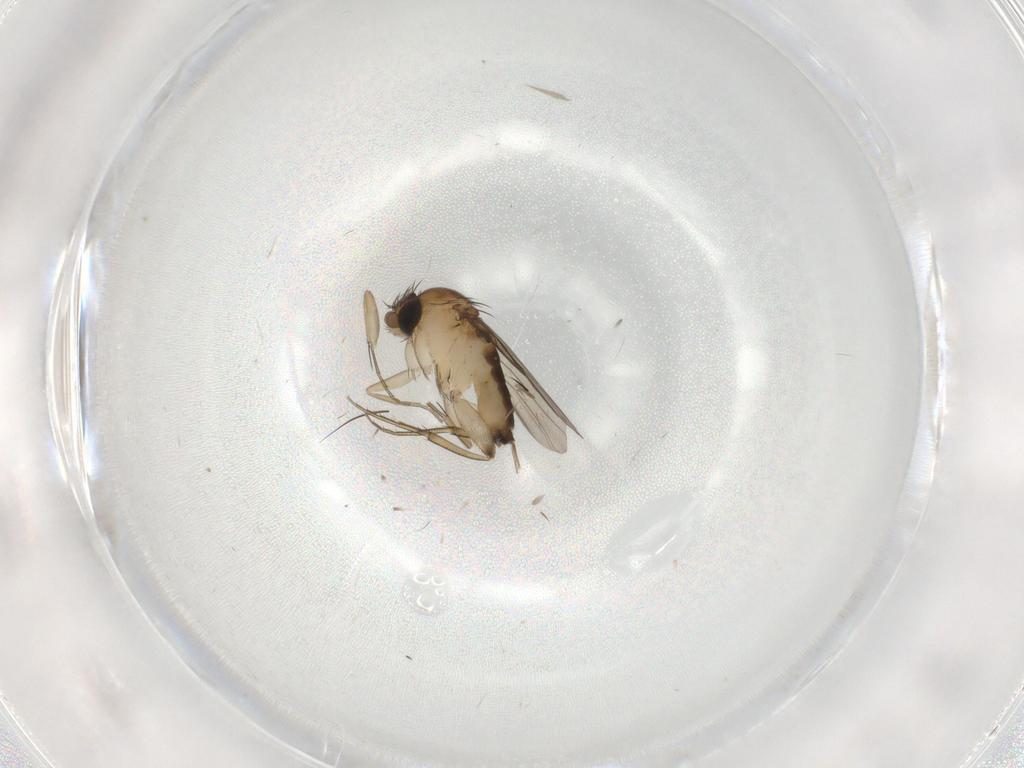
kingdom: Animalia
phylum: Arthropoda
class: Insecta
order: Diptera
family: Phoridae
